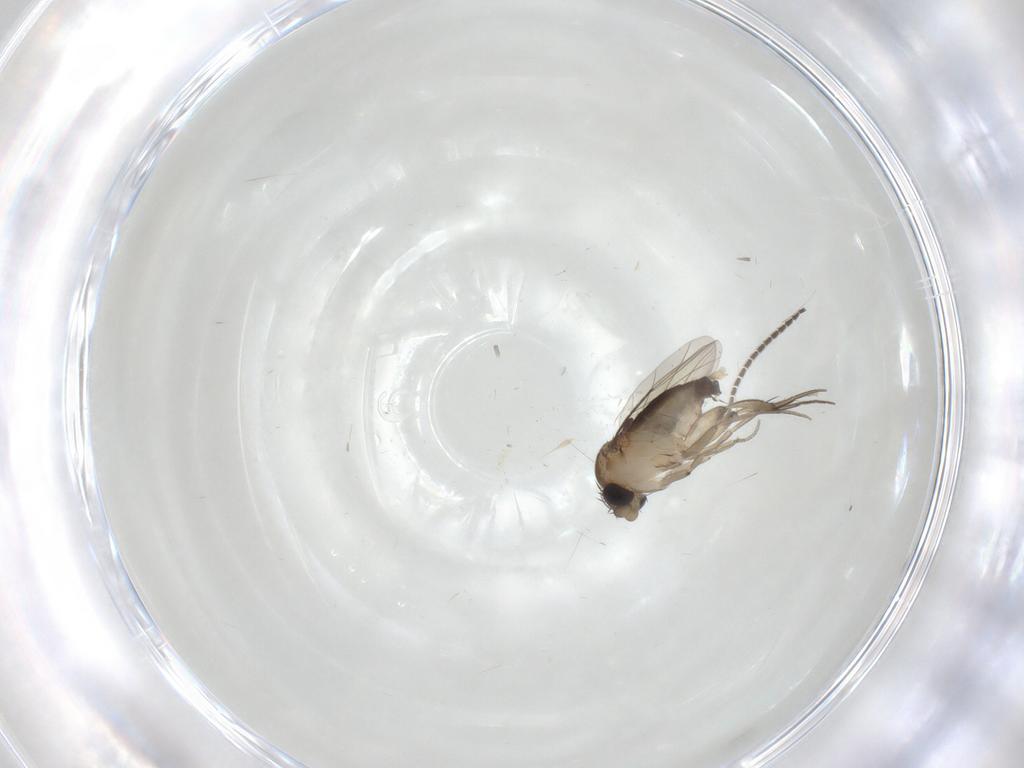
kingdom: Animalia
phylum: Arthropoda
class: Insecta
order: Diptera
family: Phoridae
